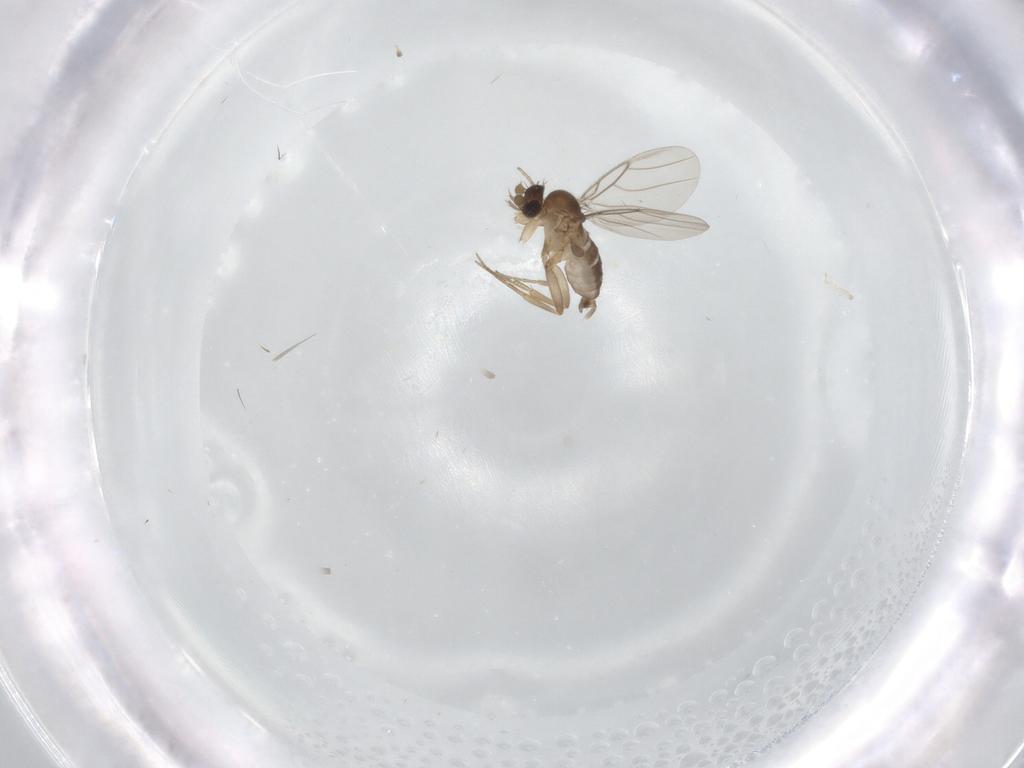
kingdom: Animalia
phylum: Arthropoda
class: Insecta
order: Diptera
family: Phoridae
